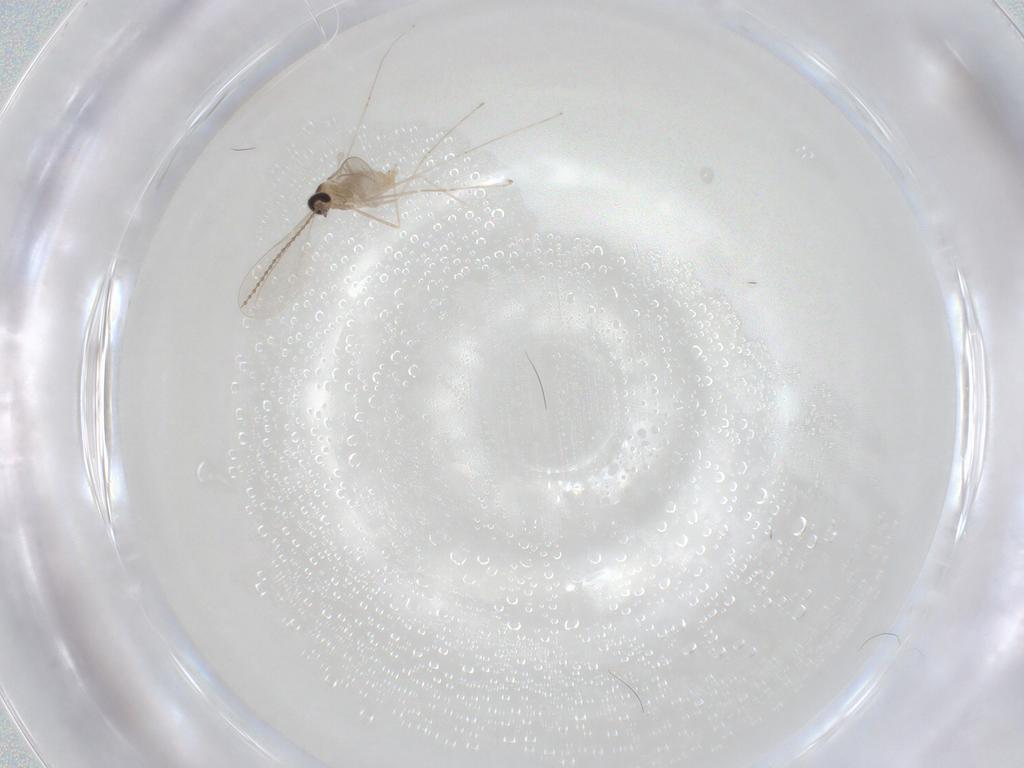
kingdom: Animalia
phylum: Arthropoda
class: Insecta
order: Diptera
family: Cecidomyiidae
